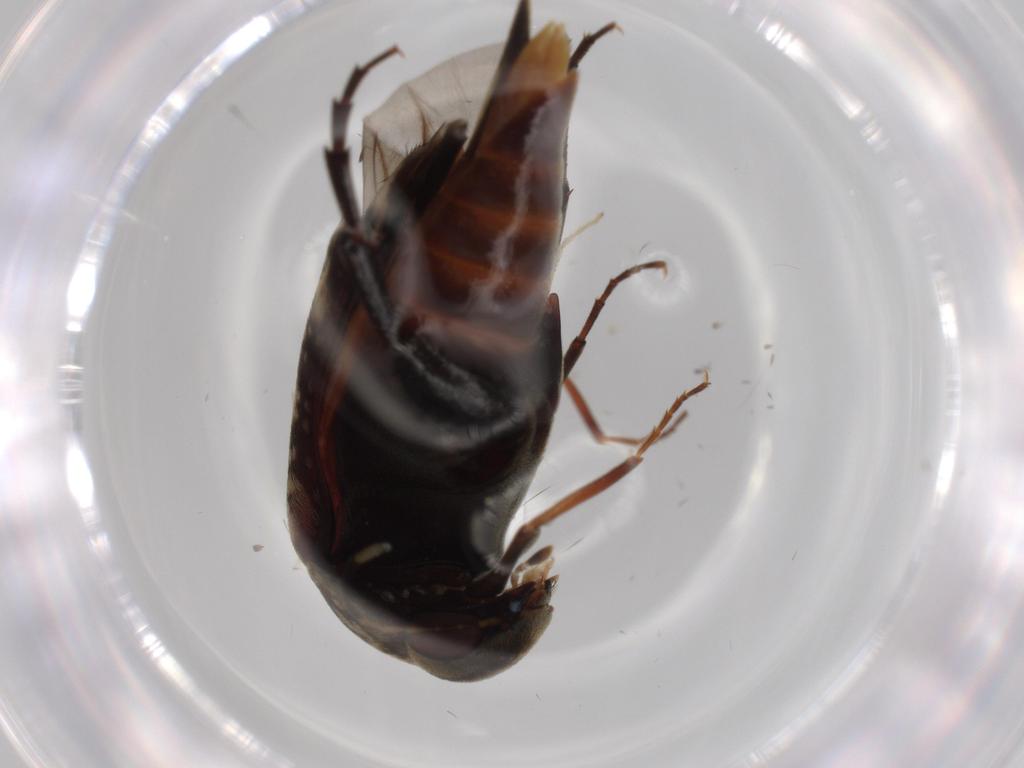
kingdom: Animalia
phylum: Arthropoda
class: Insecta
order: Coleoptera
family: Mordellidae
